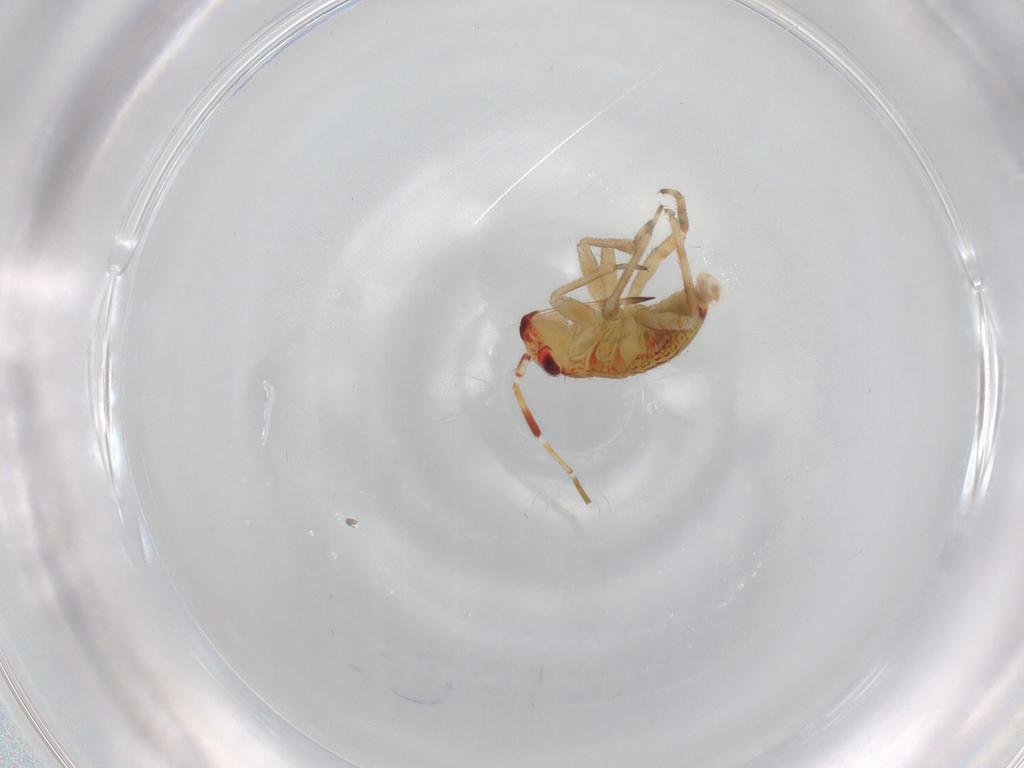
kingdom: Animalia
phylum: Arthropoda
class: Insecta
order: Hemiptera
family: Miridae
